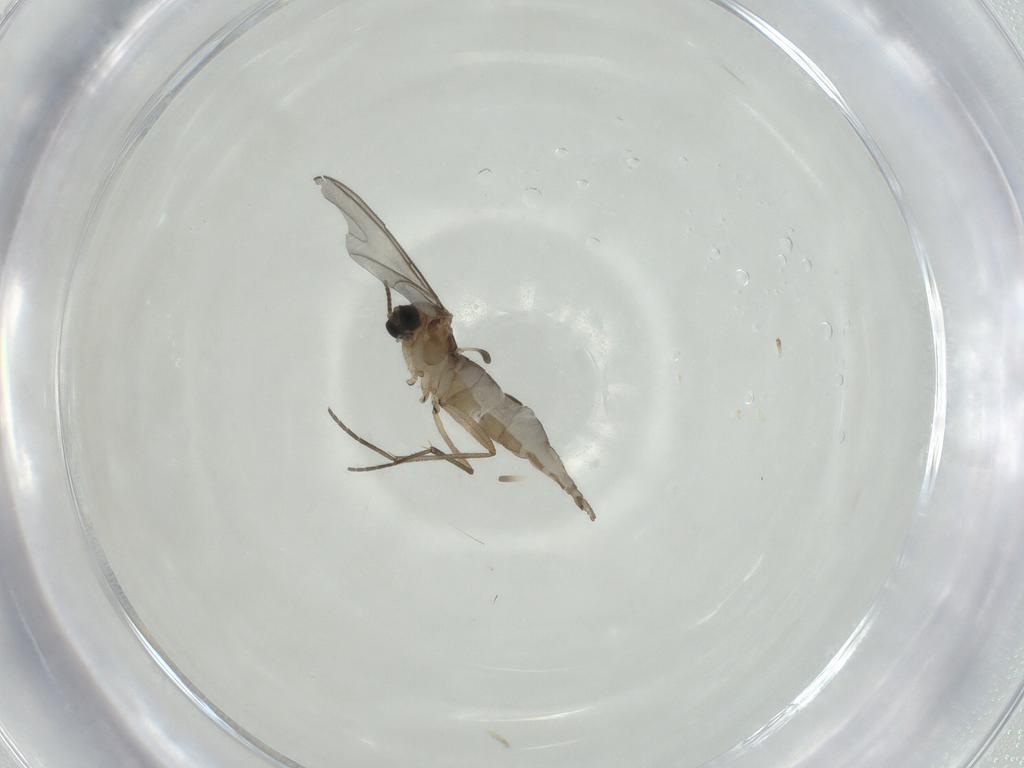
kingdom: Animalia
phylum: Arthropoda
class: Insecta
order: Diptera
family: Sciaridae
